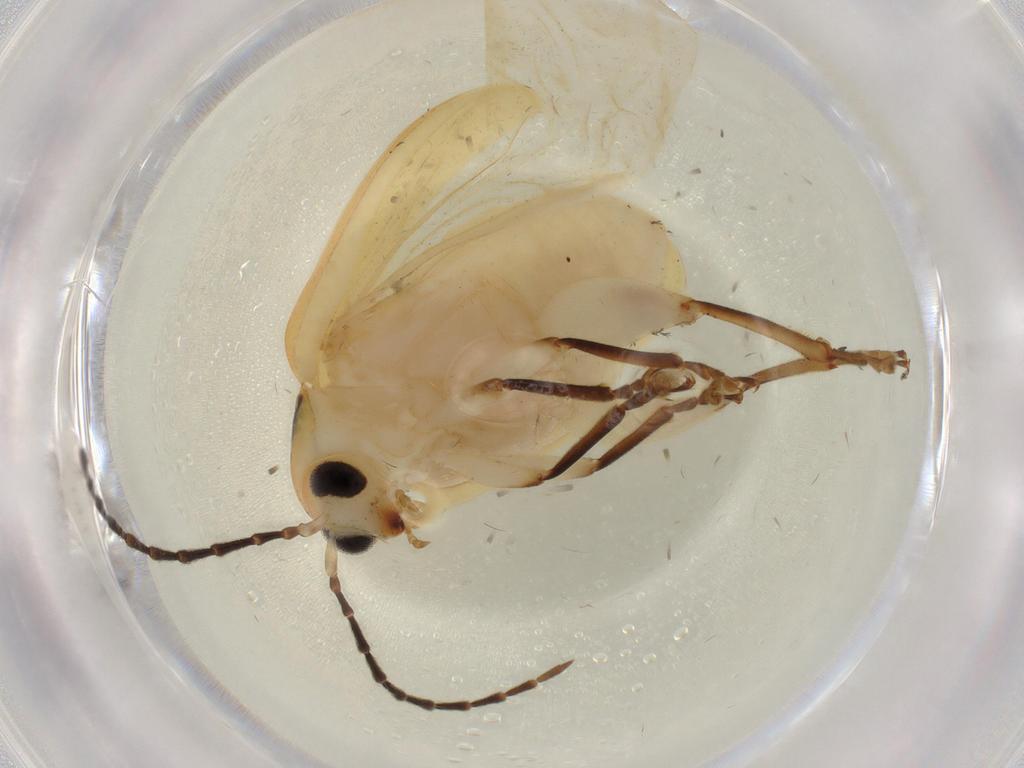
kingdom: Animalia
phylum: Arthropoda
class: Insecta
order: Coleoptera
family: Chrysomelidae
